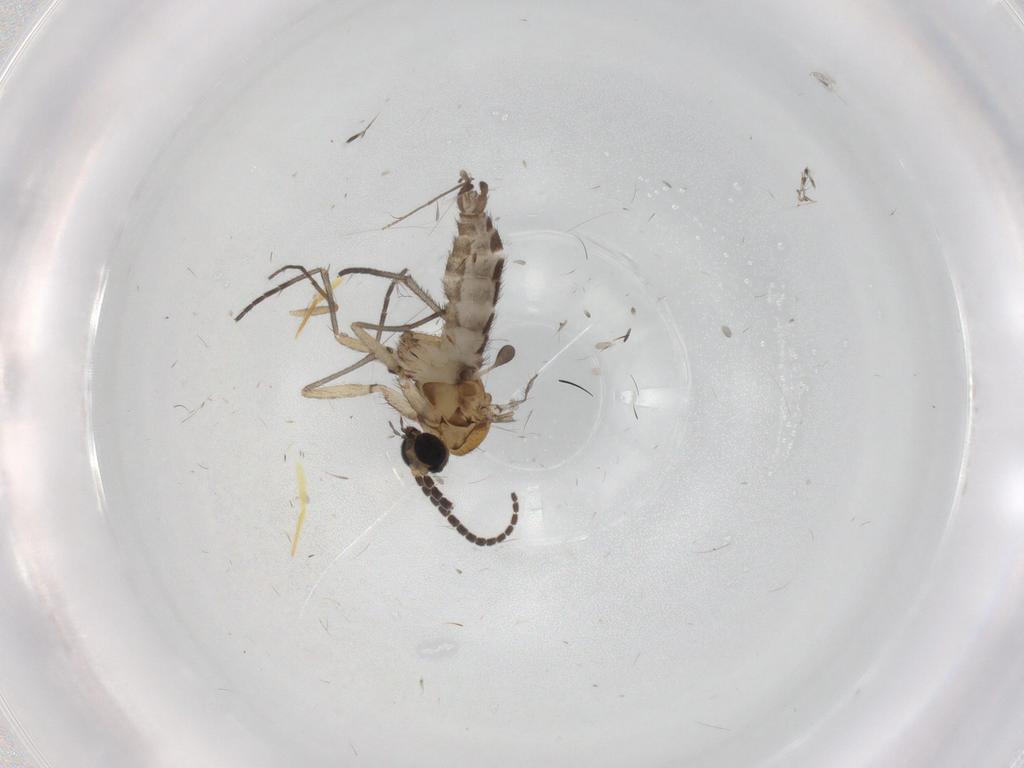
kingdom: Animalia
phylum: Arthropoda
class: Insecta
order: Diptera
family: Sciaridae
